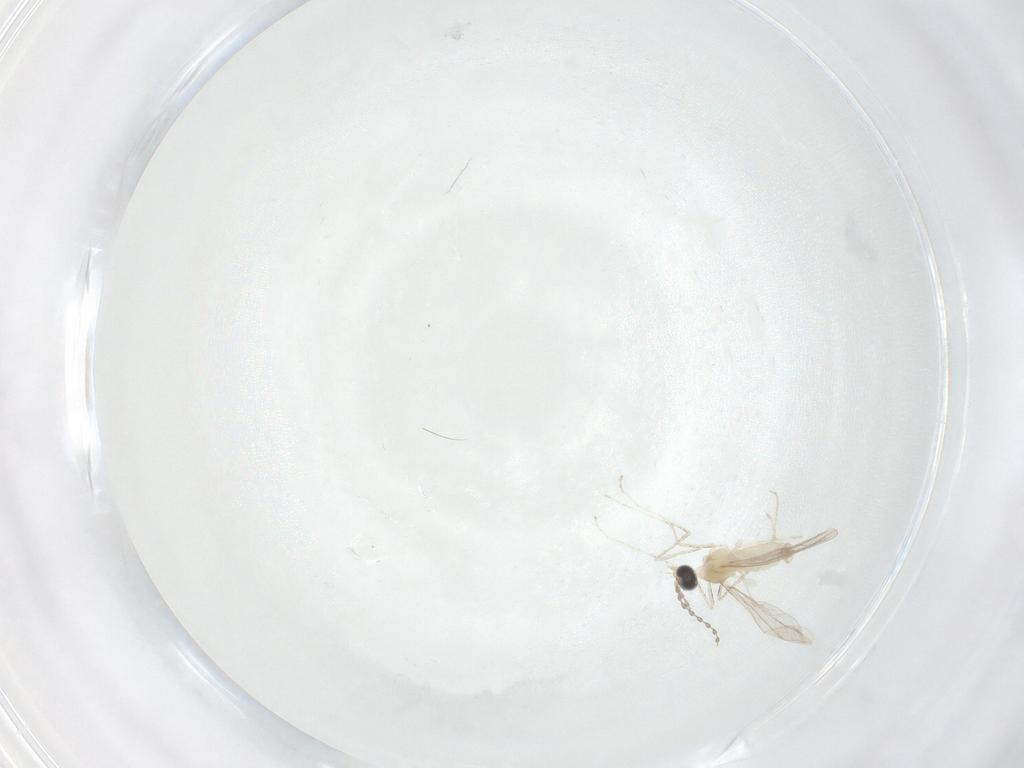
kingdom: Animalia
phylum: Arthropoda
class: Insecta
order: Diptera
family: Cecidomyiidae
